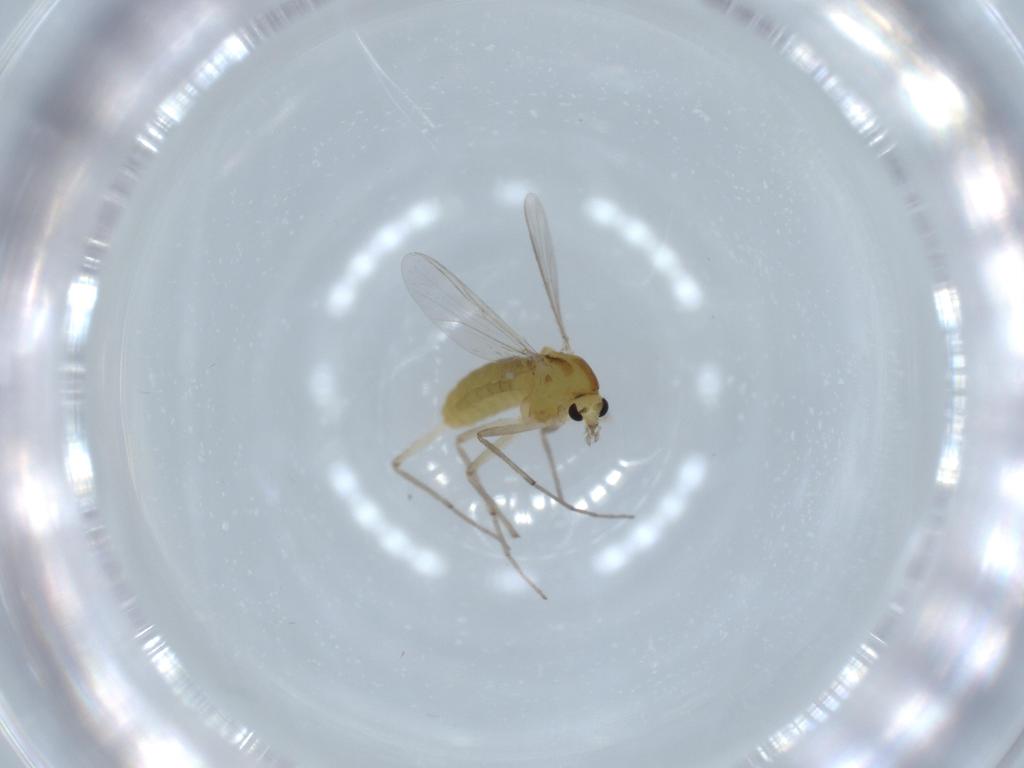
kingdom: Animalia
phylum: Arthropoda
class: Insecta
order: Diptera
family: Chironomidae
